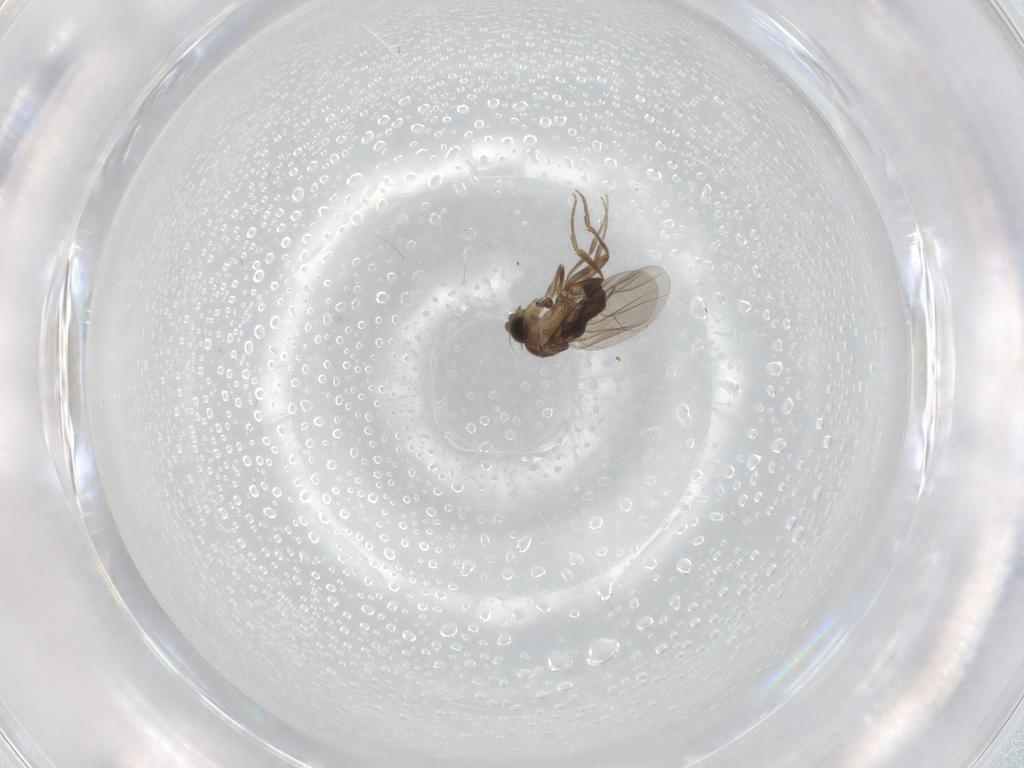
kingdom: Animalia
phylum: Arthropoda
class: Insecta
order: Diptera
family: Phoridae
